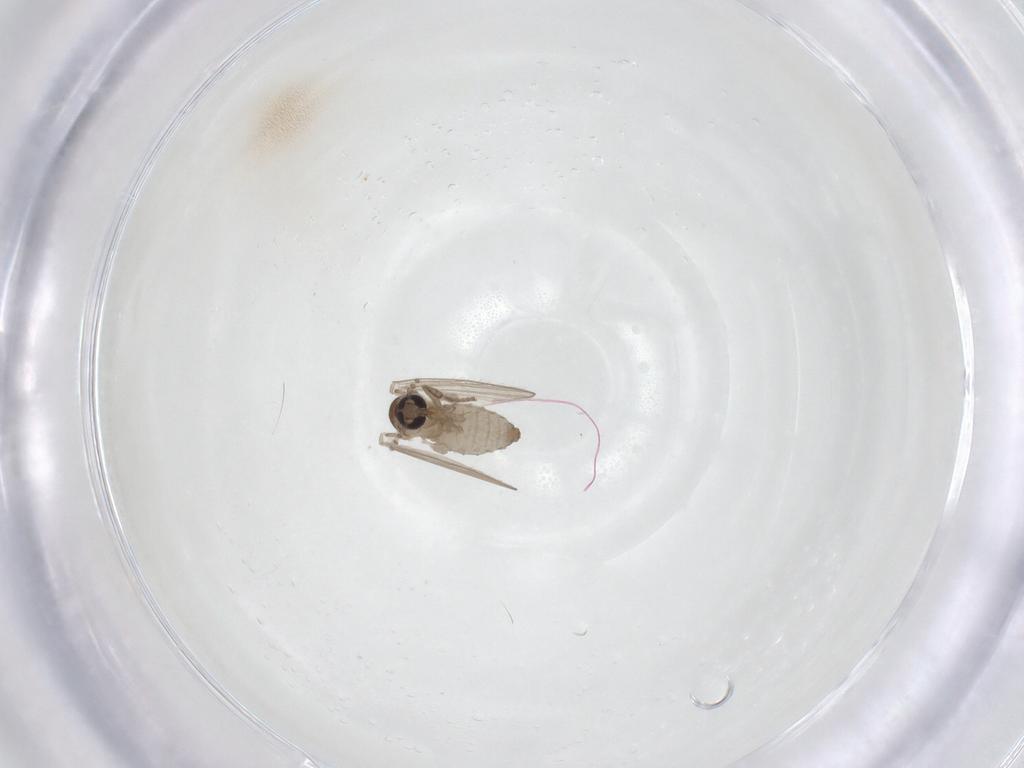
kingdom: Animalia
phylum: Arthropoda
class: Insecta
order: Diptera
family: Psychodidae
